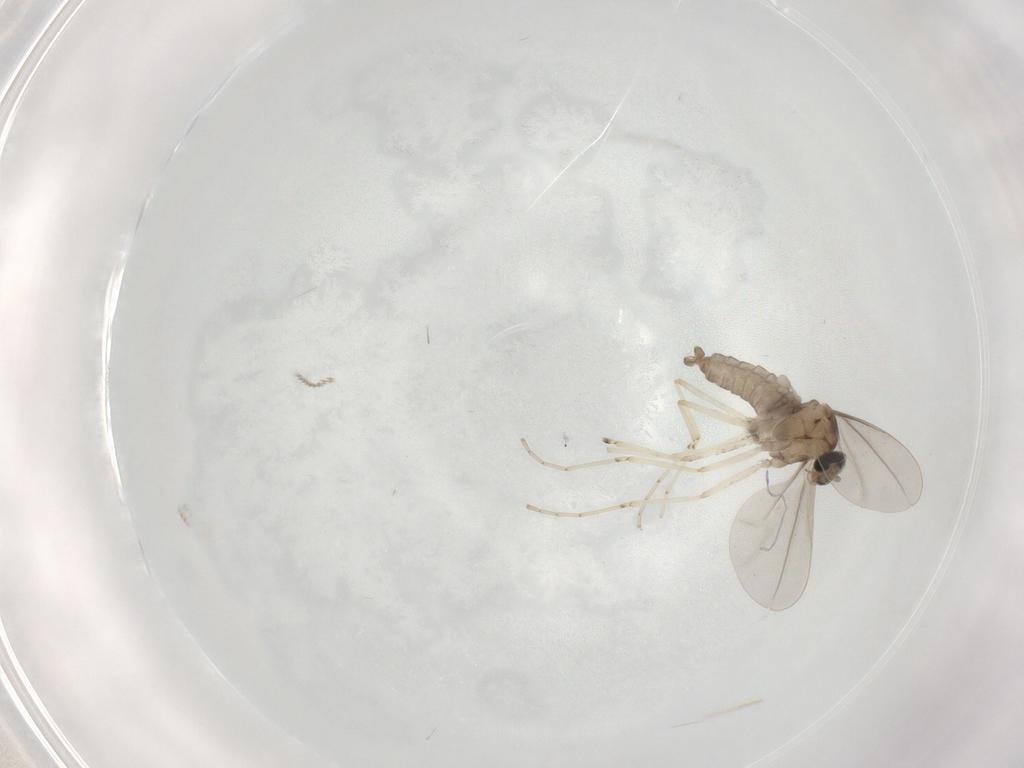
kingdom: Animalia
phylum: Arthropoda
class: Insecta
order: Diptera
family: Cecidomyiidae
